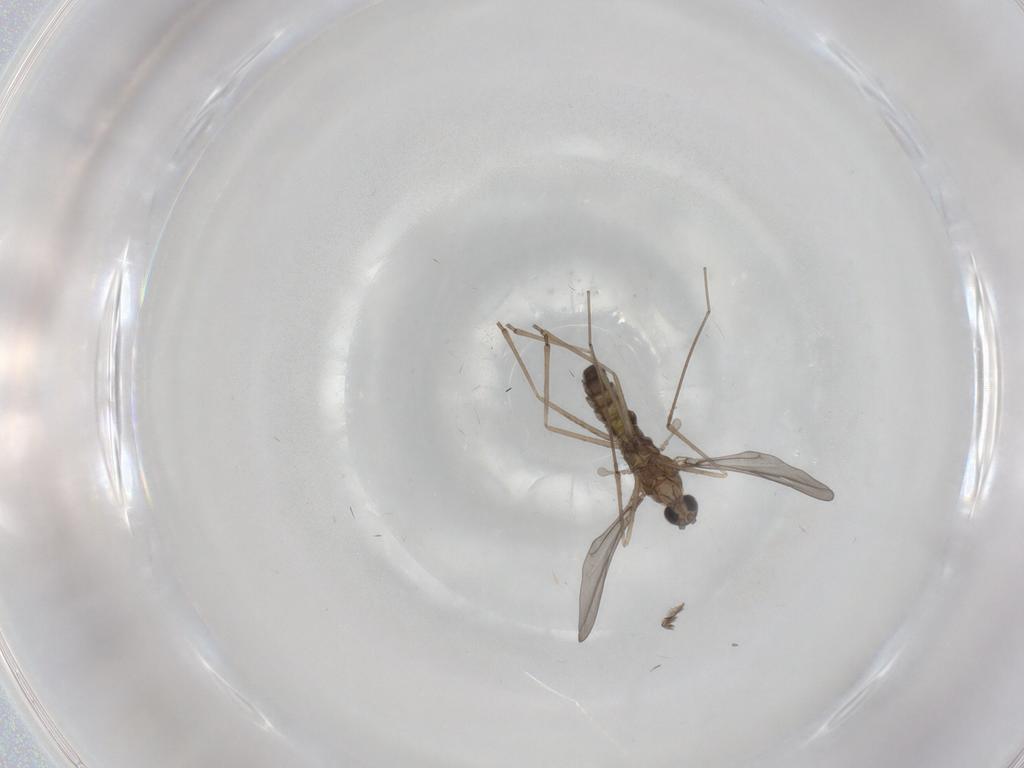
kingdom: Animalia
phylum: Arthropoda
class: Insecta
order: Diptera
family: Psychodidae
